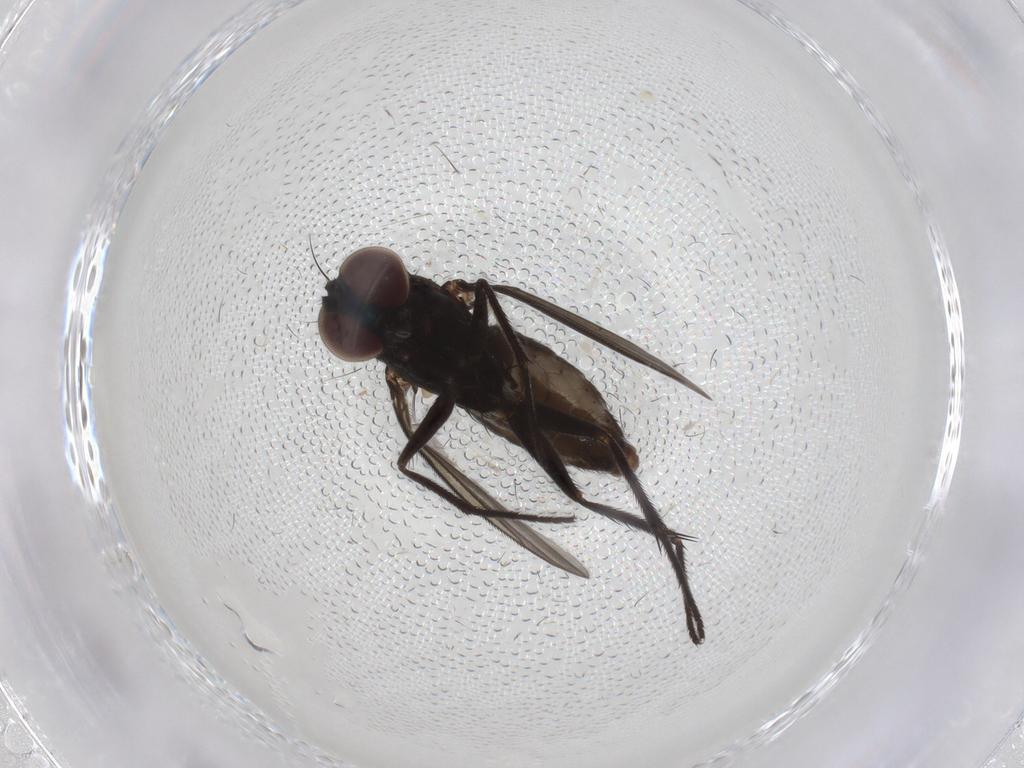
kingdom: Animalia
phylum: Arthropoda
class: Insecta
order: Diptera
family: Dolichopodidae
